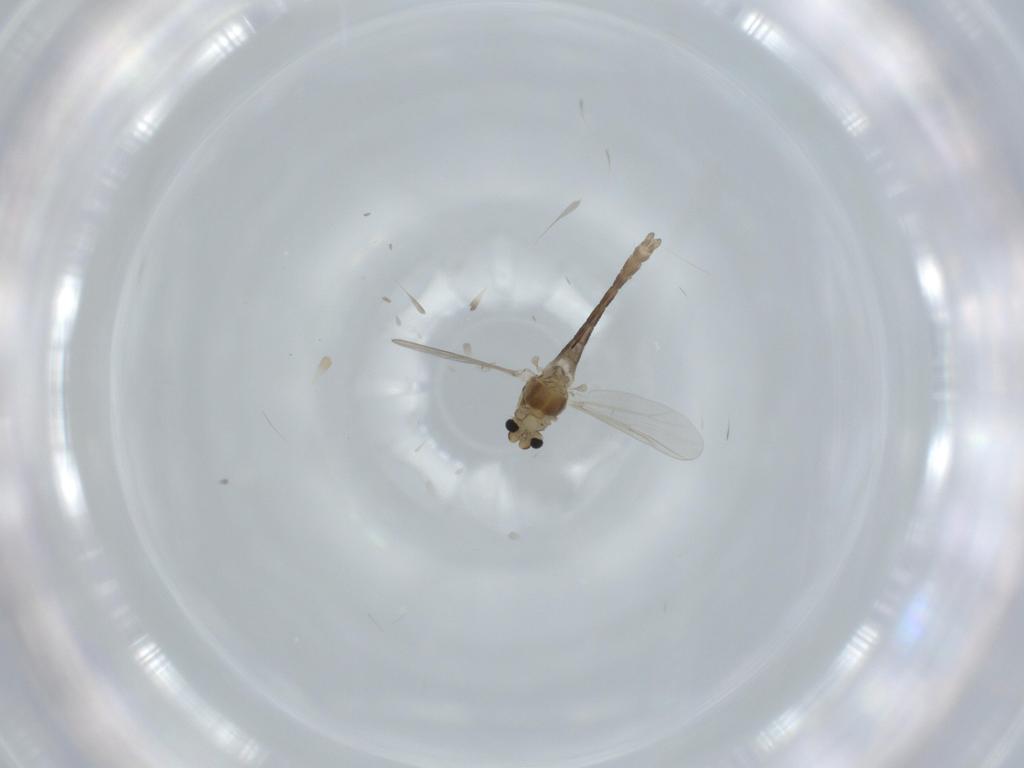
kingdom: Animalia
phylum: Arthropoda
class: Insecta
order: Diptera
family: Chironomidae
